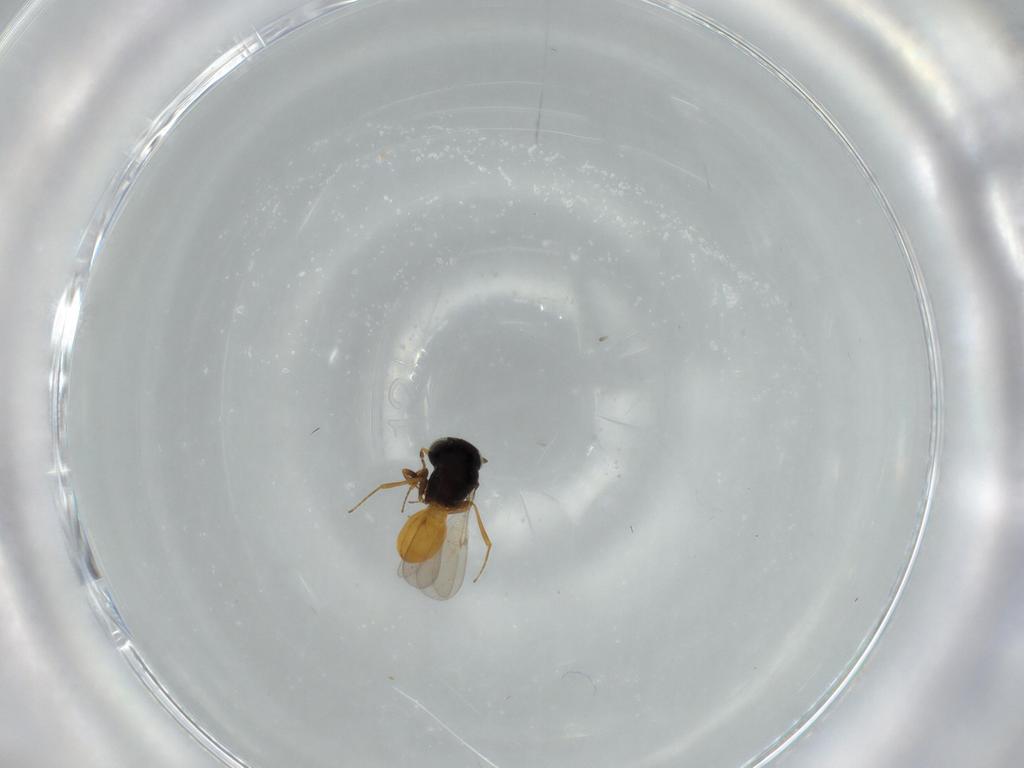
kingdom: Animalia
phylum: Arthropoda
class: Insecta
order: Hymenoptera
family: Scelionidae
